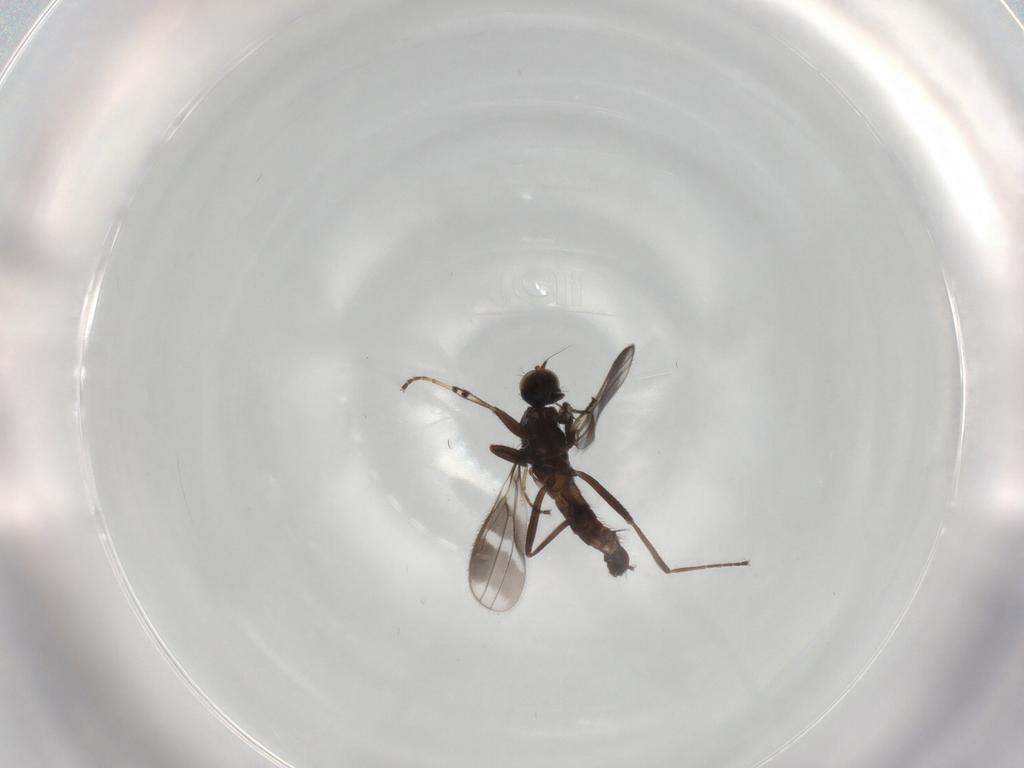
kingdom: Animalia
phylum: Arthropoda
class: Insecta
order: Diptera
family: Hybotidae
